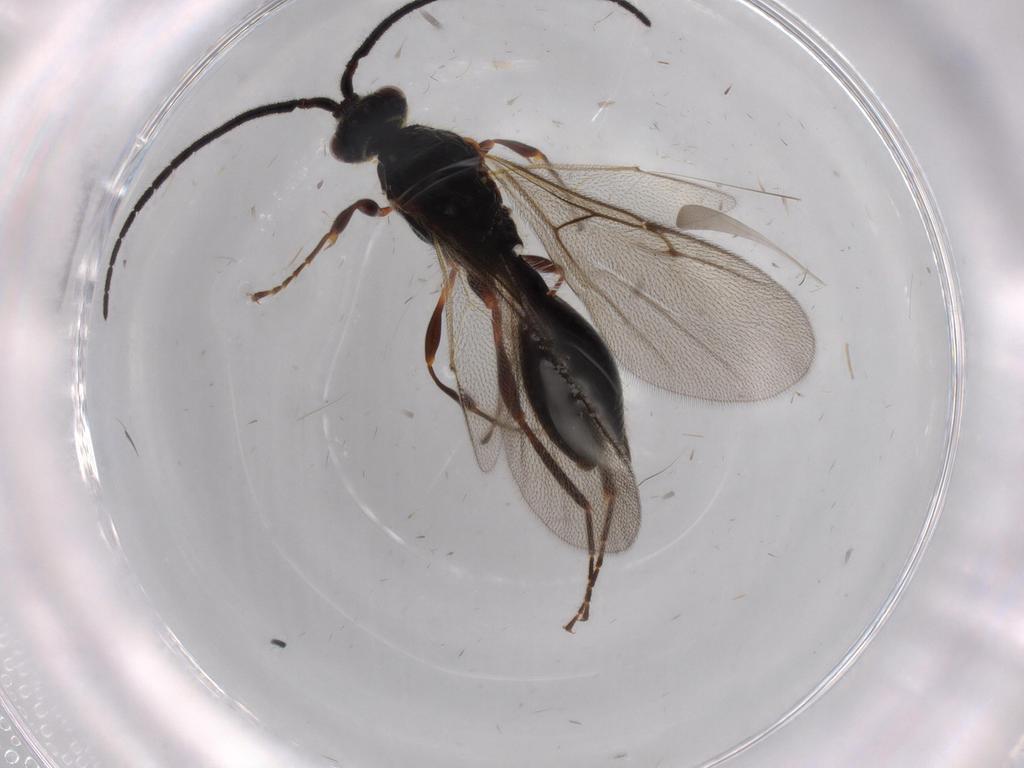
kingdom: Animalia
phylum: Arthropoda
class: Insecta
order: Hymenoptera
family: Diapriidae
